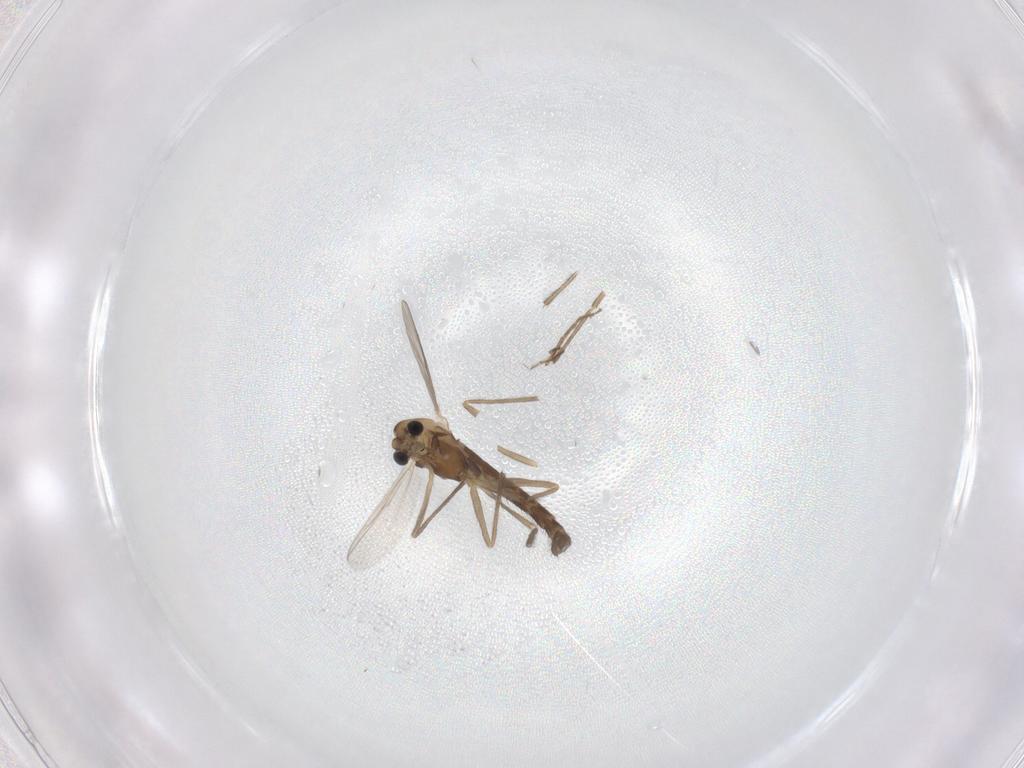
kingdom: Animalia
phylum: Arthropoda
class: Insecta
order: Diptera
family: Chironomidae
